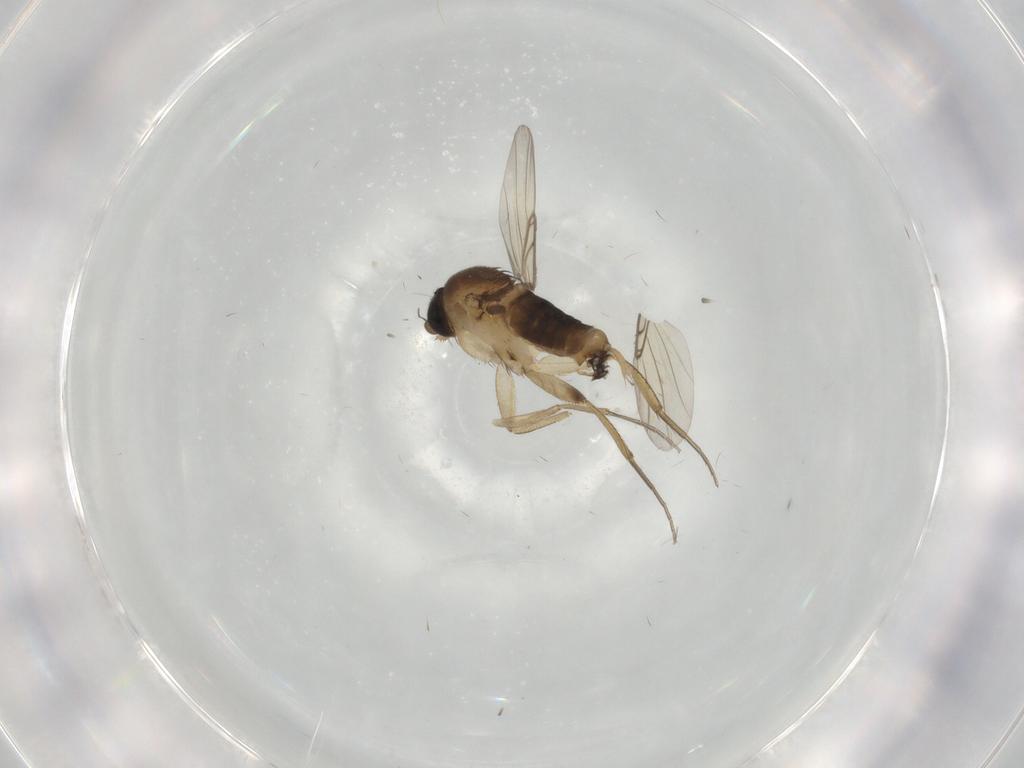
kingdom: Animalia
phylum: Arthropoda
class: Insecta
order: Diptera
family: Phoridae
